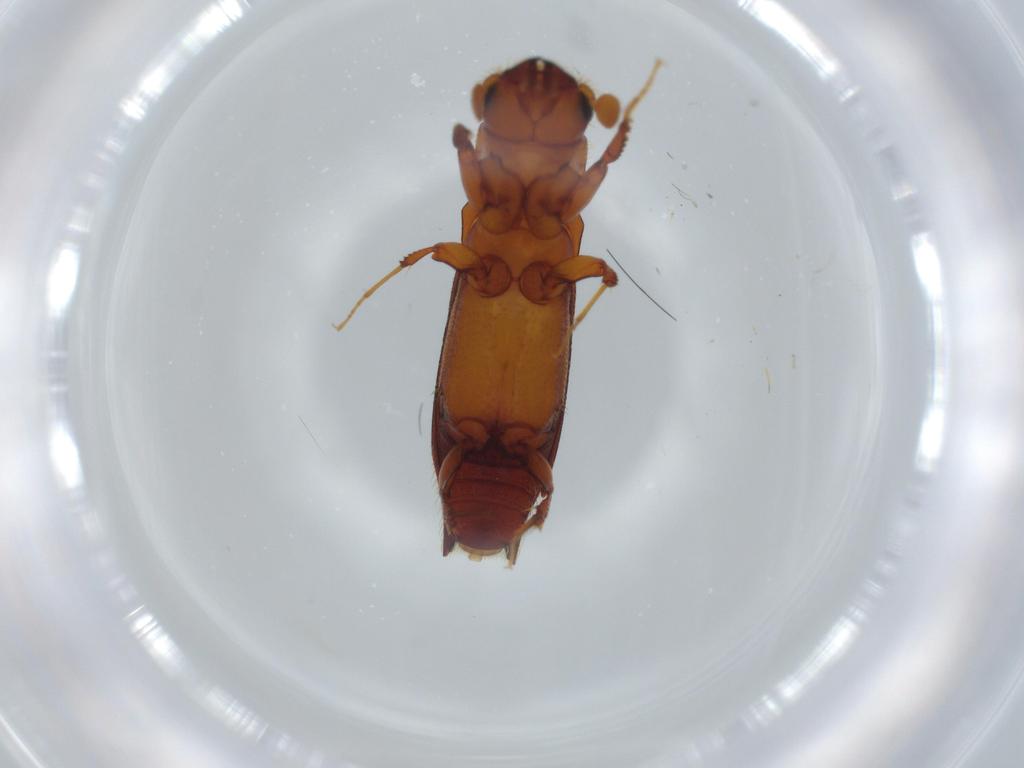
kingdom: Animalia
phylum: Arthropoda
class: Insecta
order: Coleoptera
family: Curculionidae
